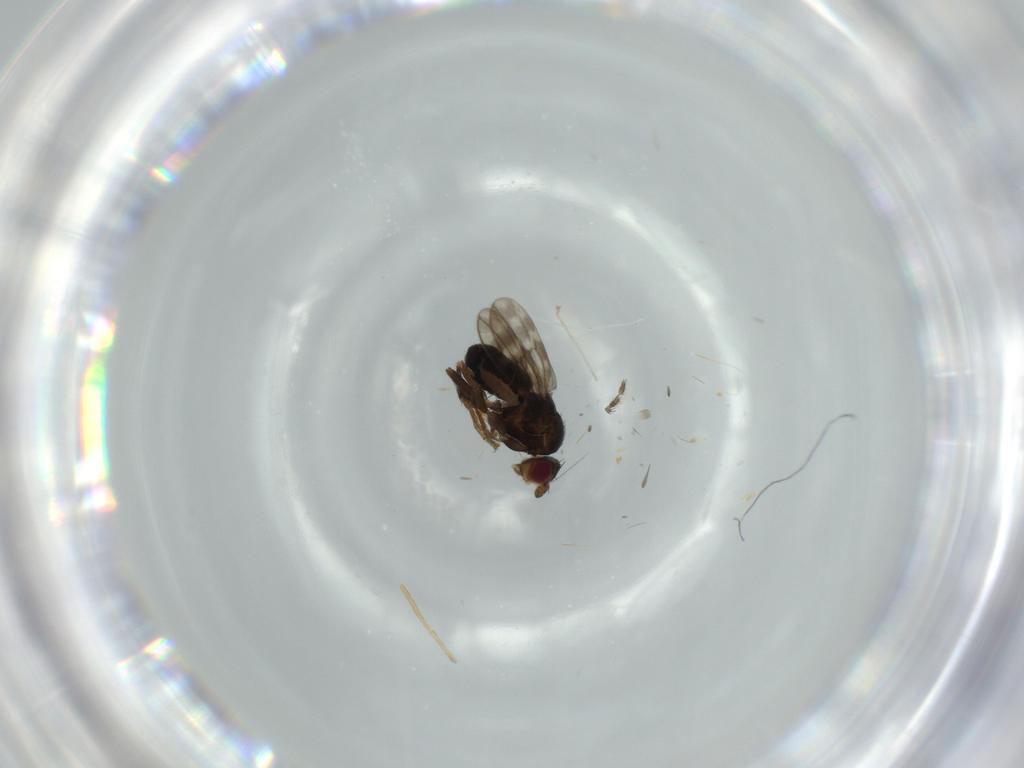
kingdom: Animalia
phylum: Arthropoda
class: Insecta
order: Diptera
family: Sphaeroceridae
